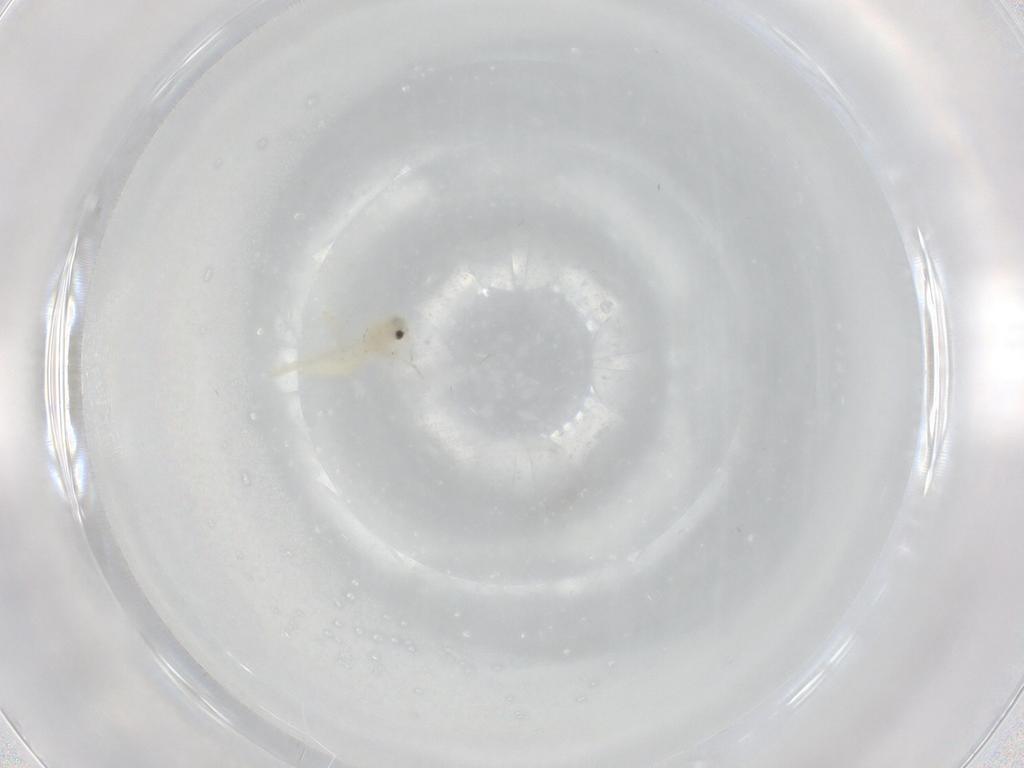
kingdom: Animalia
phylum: Arthropoda
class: Insecta
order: Hemiptera
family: Aleyrodidae
